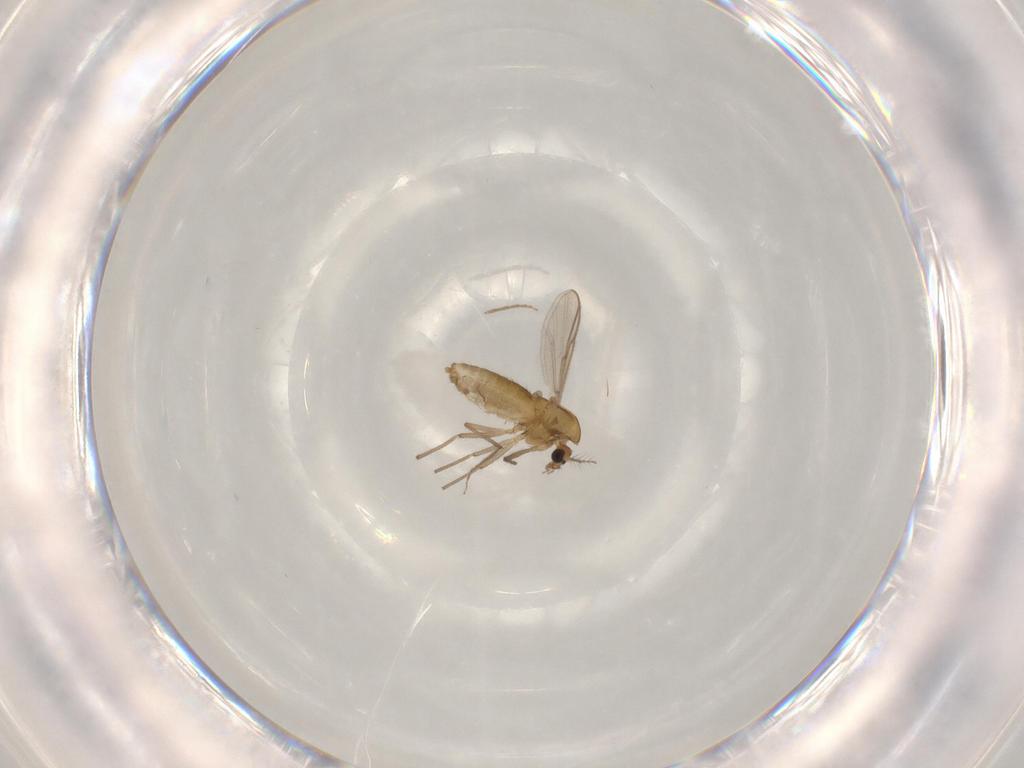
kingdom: Animalia
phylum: Arthropoda
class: Insecta
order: Diptera
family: Chironomidae
